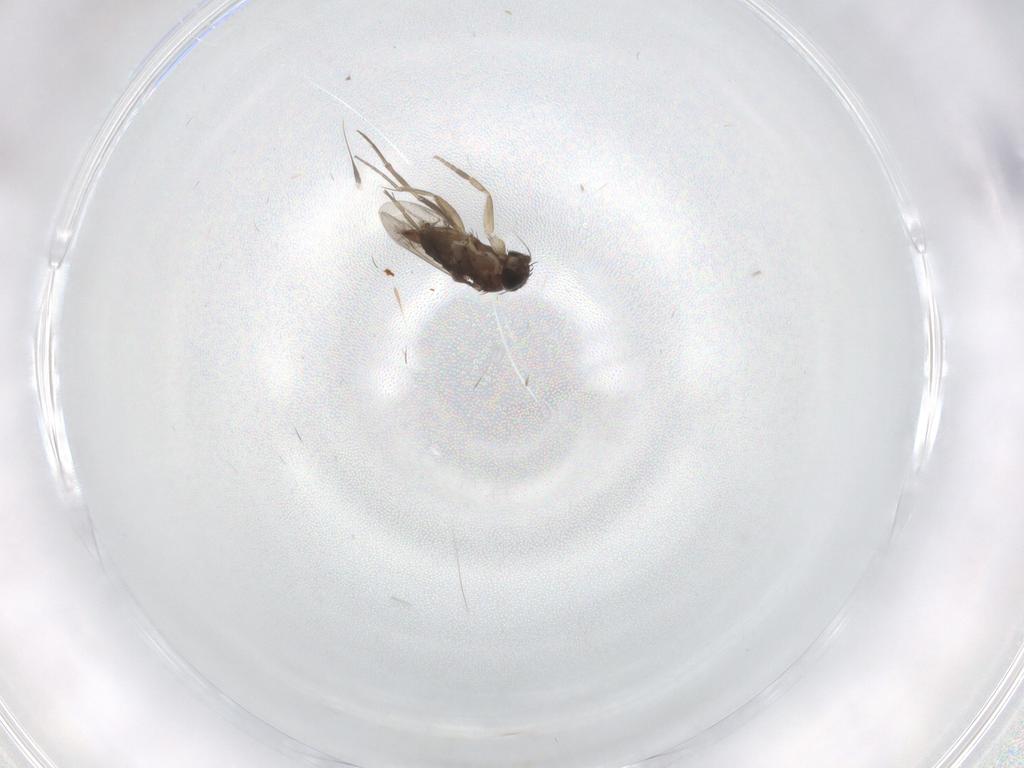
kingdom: Animalia
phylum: Arthropoda
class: Insecta
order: Diptera
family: Phoridae
